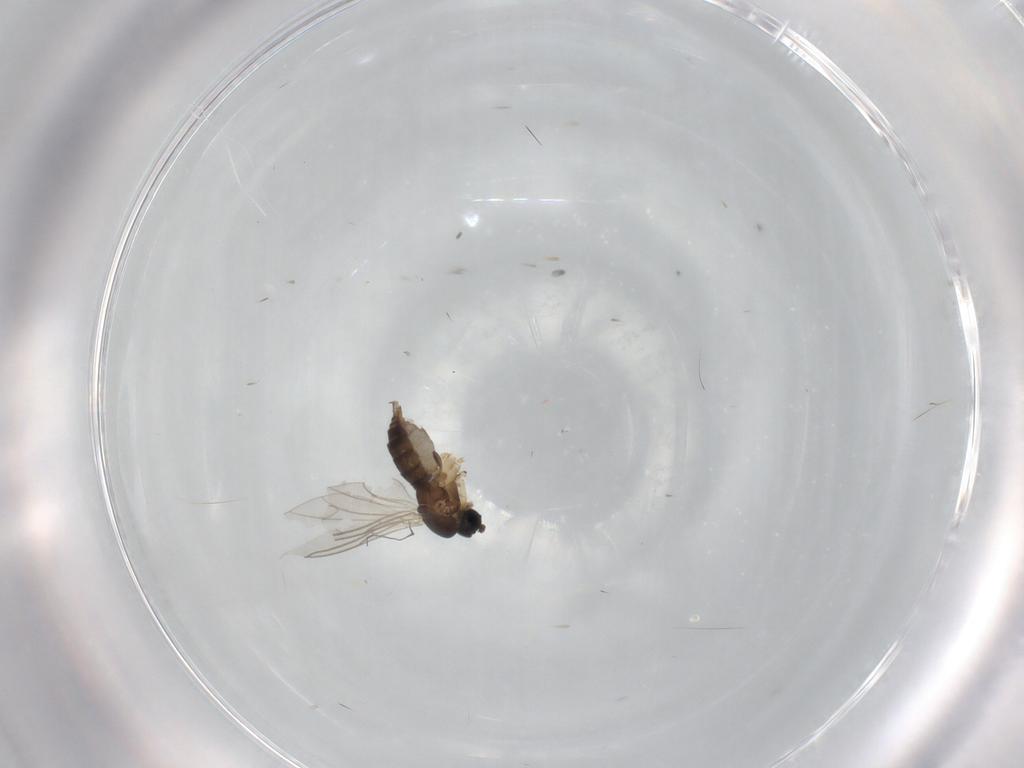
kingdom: Animalia
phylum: Arthropoda
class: Insecta
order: Diptera
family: Sciaridae
